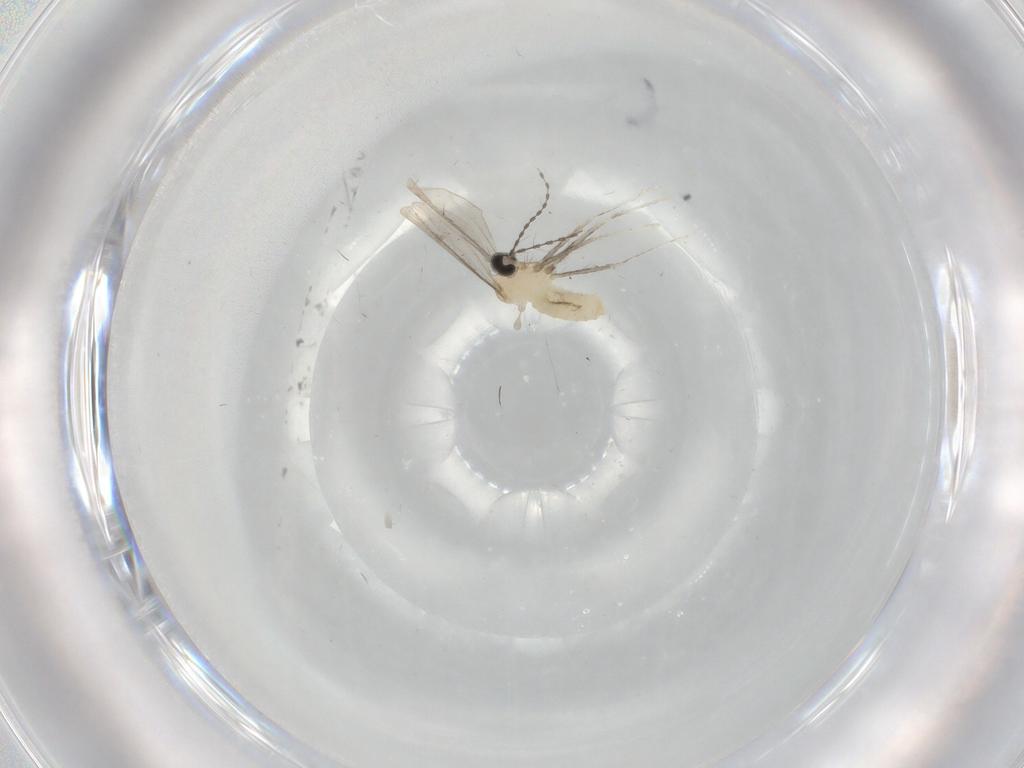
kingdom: Animalia
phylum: Arthropoda
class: Insecta
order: Diptera
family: Cecidomyiidae
